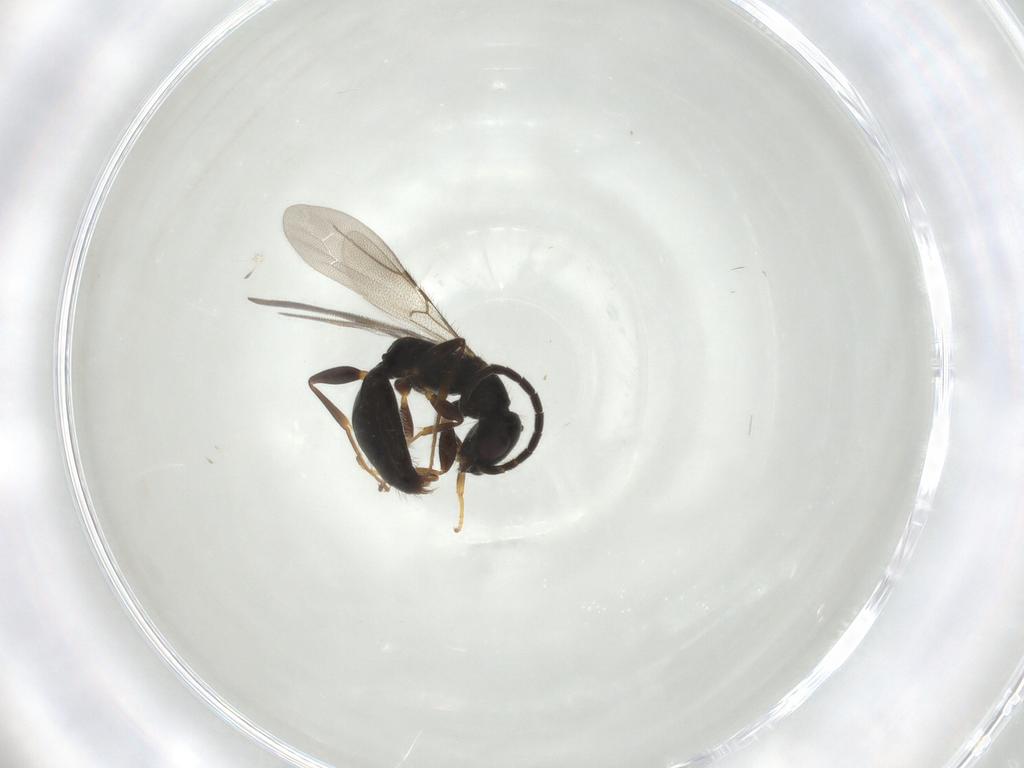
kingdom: Animalia
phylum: Arthropoda
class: Insecta
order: Hymenoptera
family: Bethylidae
